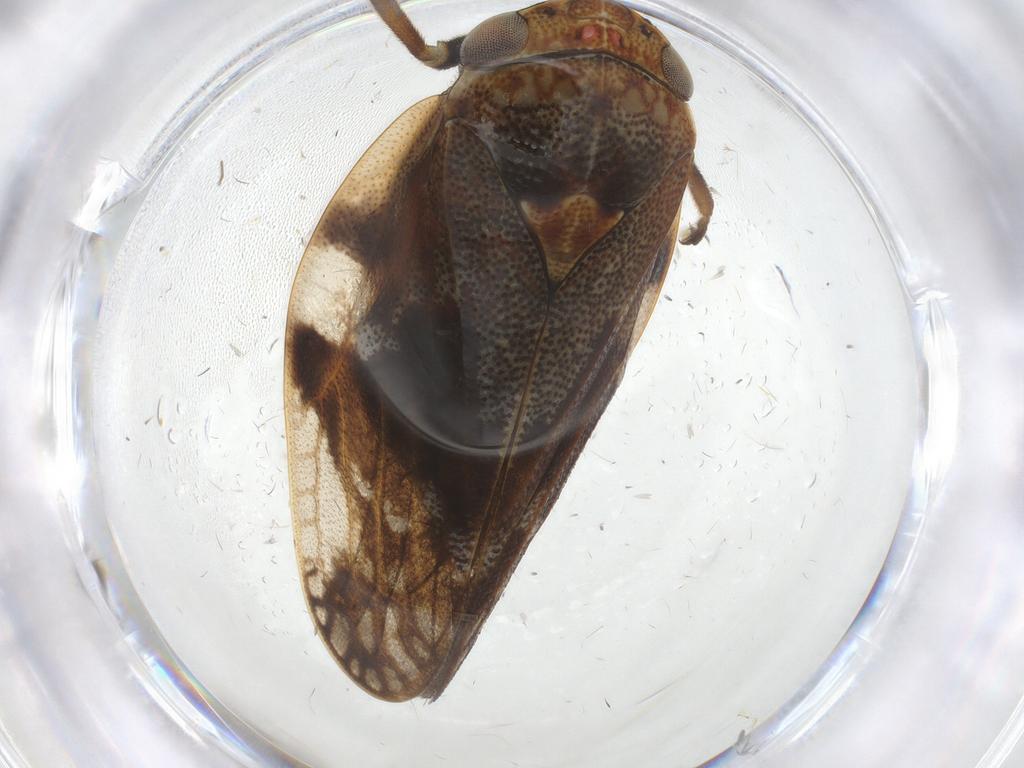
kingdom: Animalia
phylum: Arthropoda
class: Insecta
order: Hemiptera
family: Aphrophoridae
